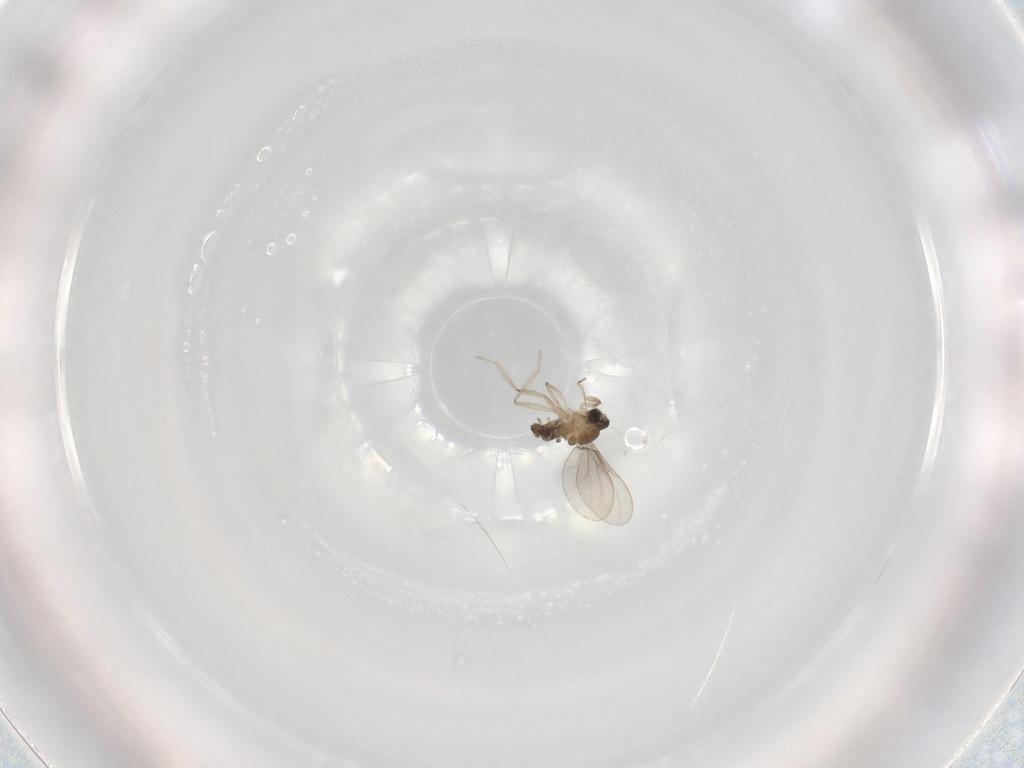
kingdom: Animalia
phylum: Arthropoda
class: Insecta
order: Diptera
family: Cecidomyiidae
